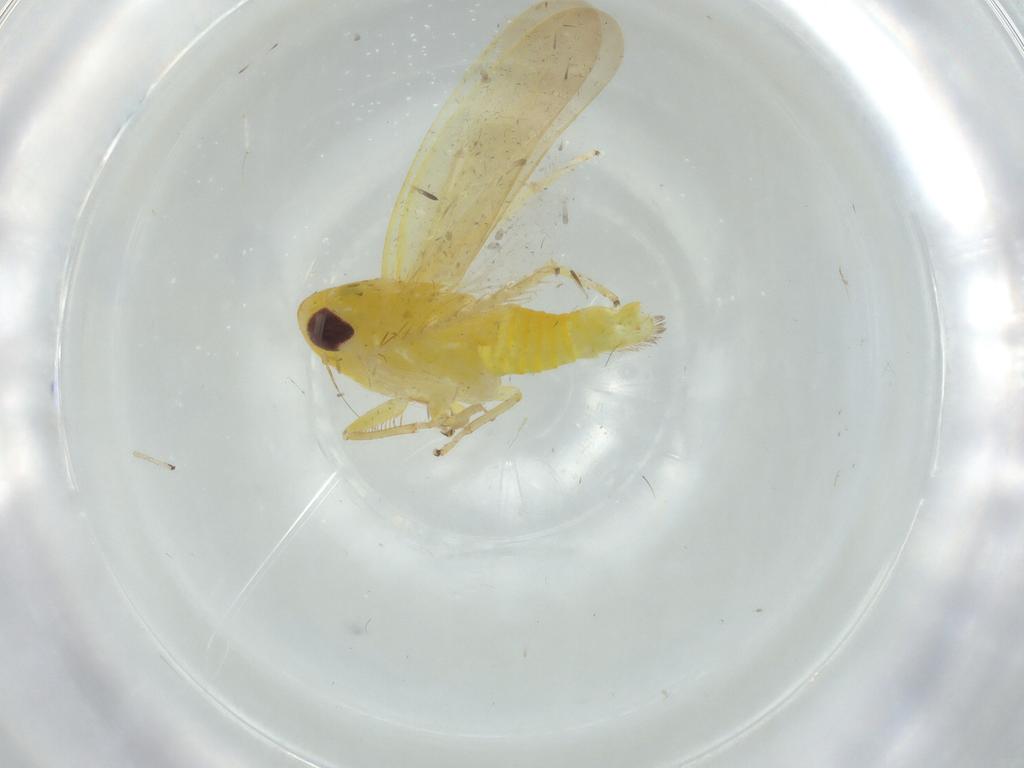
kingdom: Animalia
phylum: Arthropoda
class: Insecta
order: Hemiptera
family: Cicadellidae
